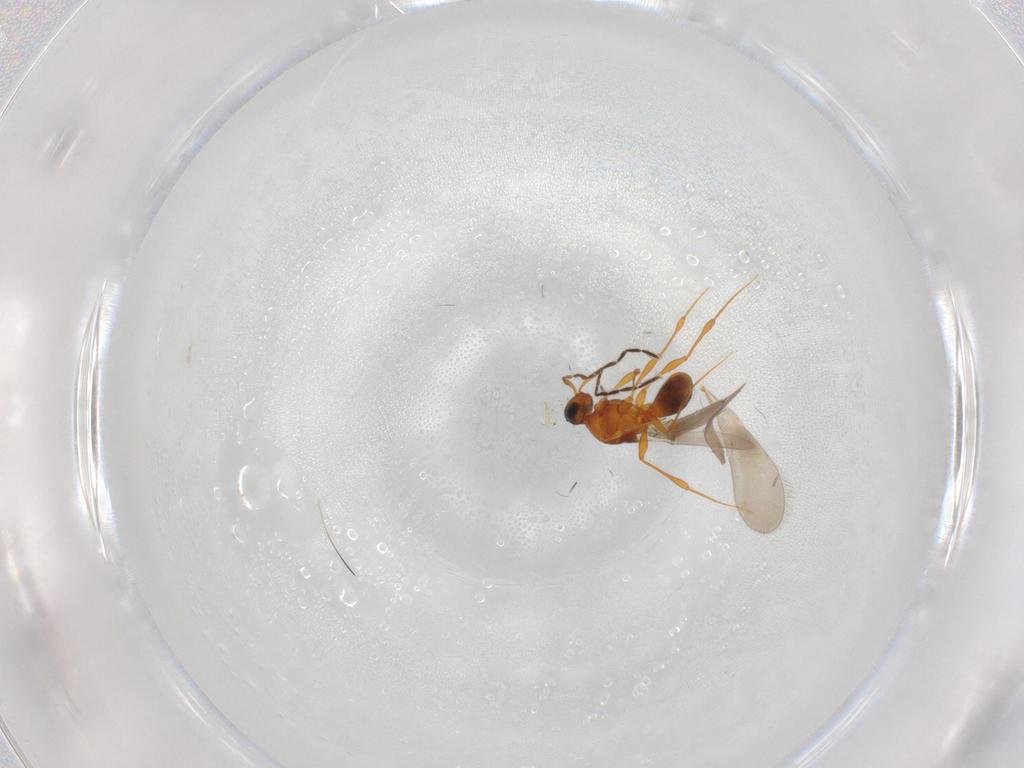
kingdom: Animalia
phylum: Arthropoda
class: Insecta
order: Hymenoptera
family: Platygastridae
